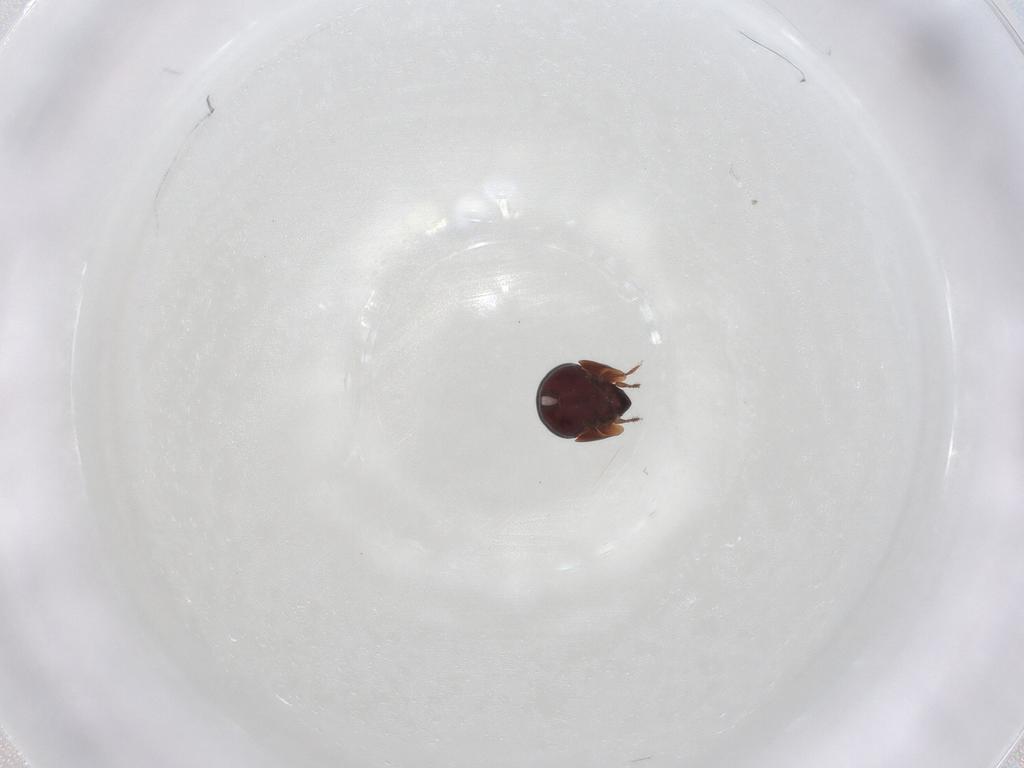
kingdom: Animalia
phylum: Arthropoda
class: Arachnida
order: Sarcoptiformes
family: Galumnidae
